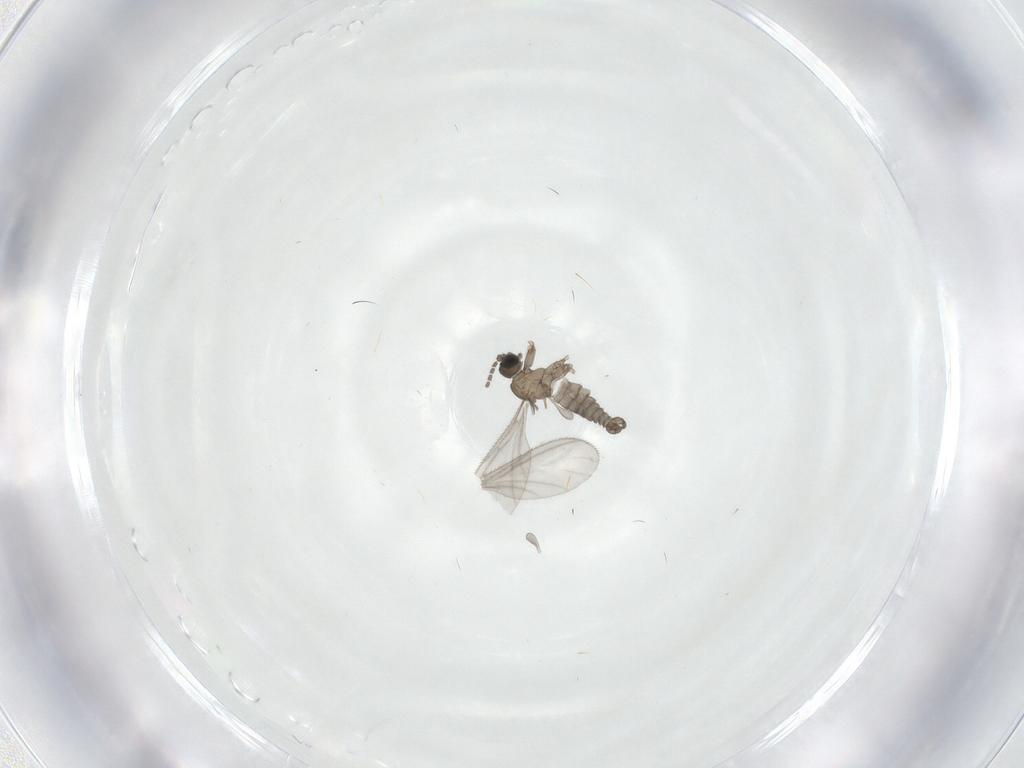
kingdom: Animalia
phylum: Arthropoda
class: Insecta
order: Diptera
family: Sciaridae
